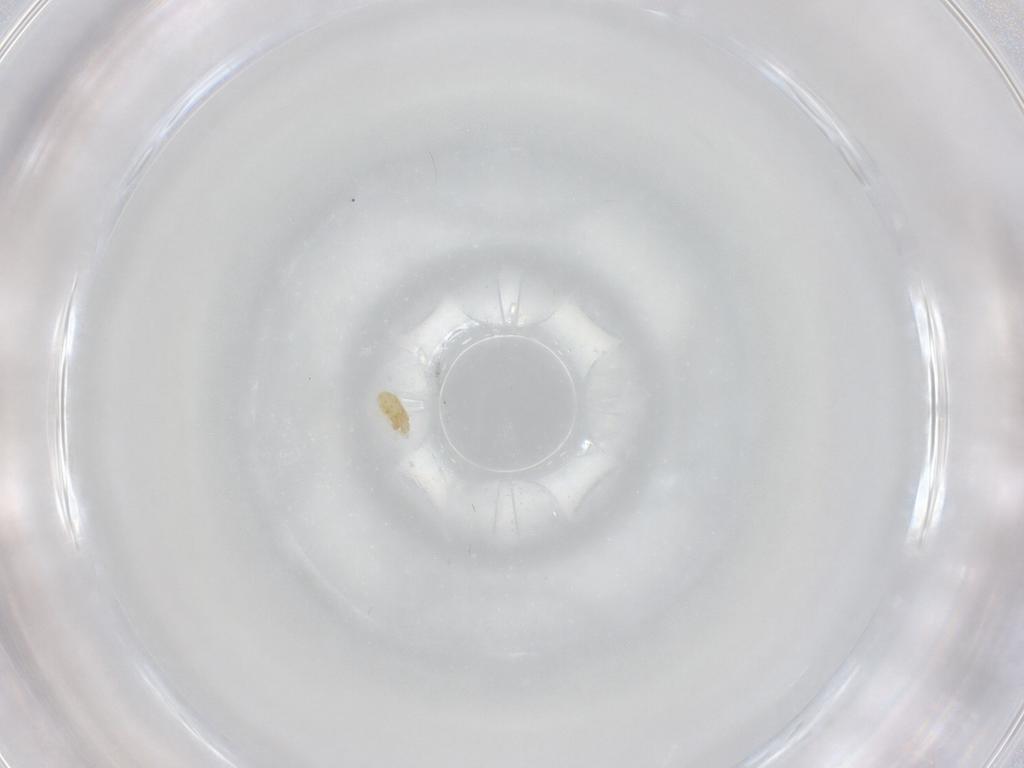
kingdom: Animalia
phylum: Arthropoda
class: Arachnida
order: Trombidiformes
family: Eupodidae
